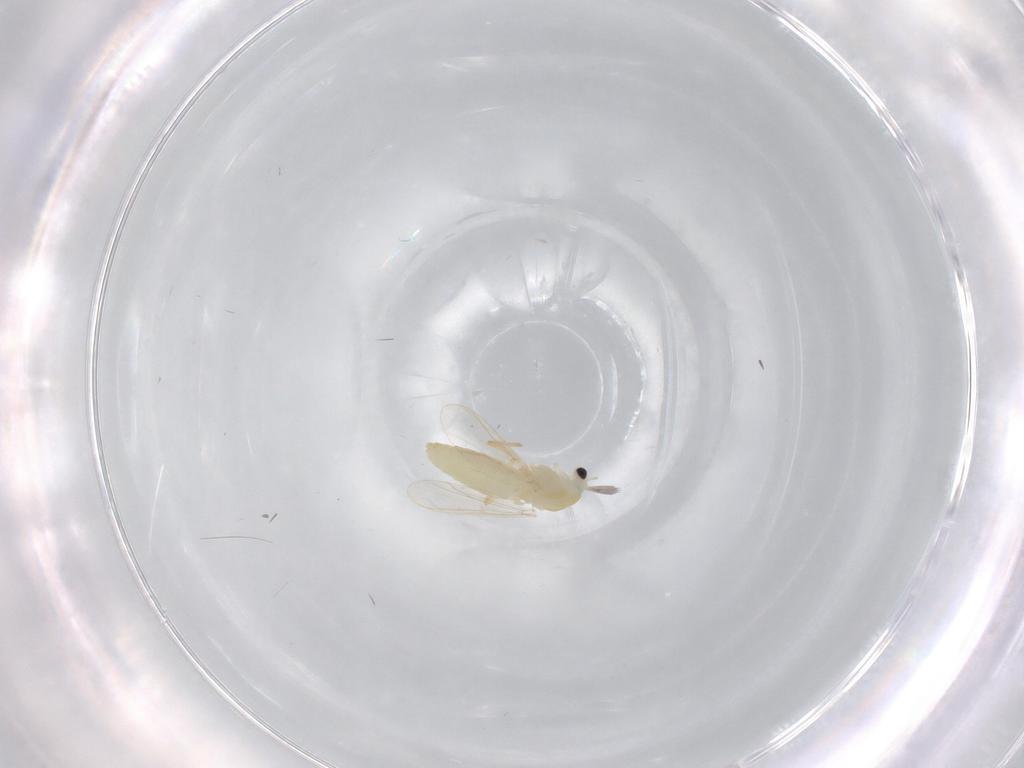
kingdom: Animalia
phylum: Arthropoda
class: Insecta
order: Diptera
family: Chironomidae
